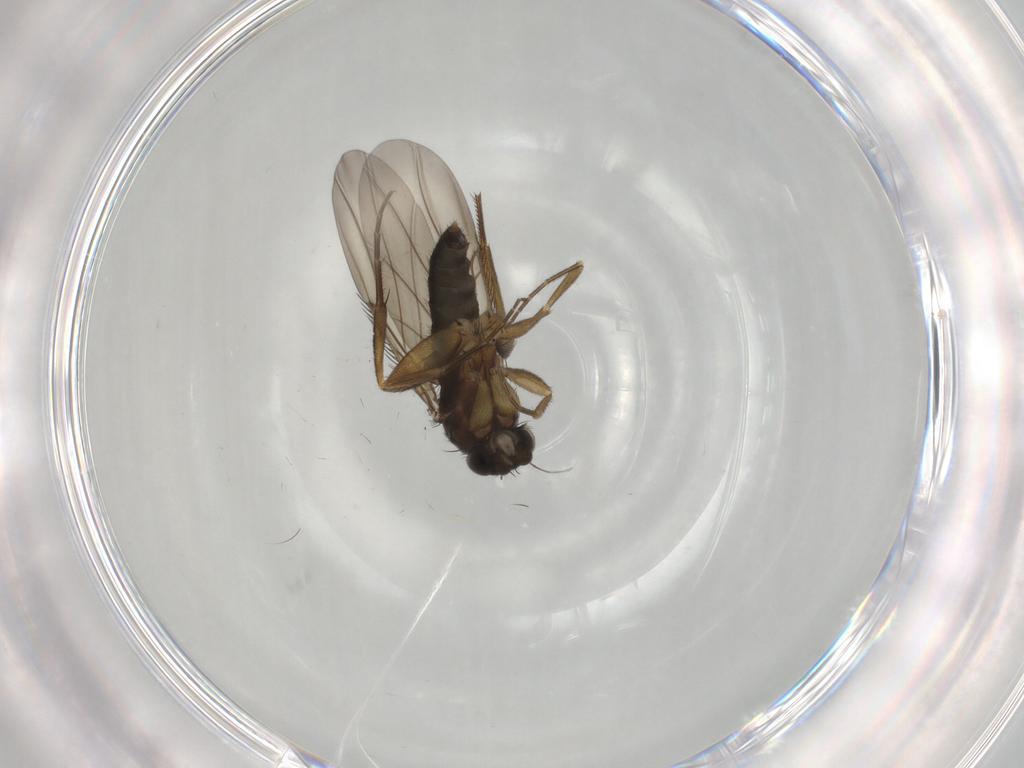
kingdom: Animalia
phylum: Arthropoda
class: Insecta
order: Diptera
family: Phoridae
